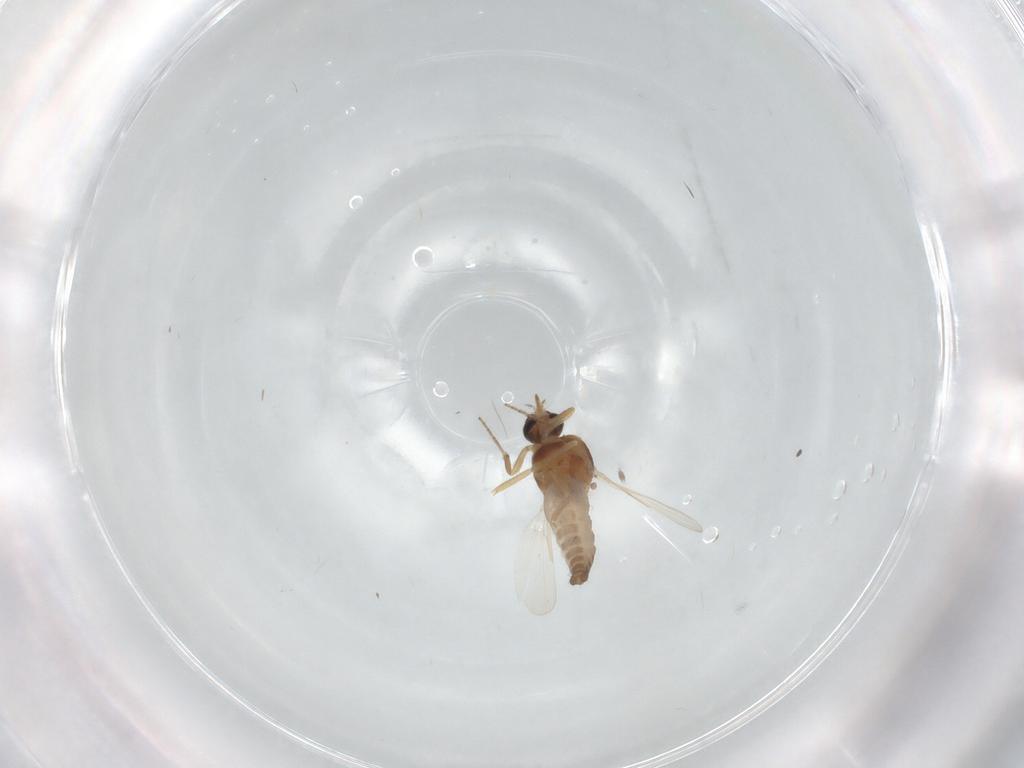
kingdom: Animalia
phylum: Arthropoda
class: Insecta
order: Diptera
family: Ceratopogonidae
